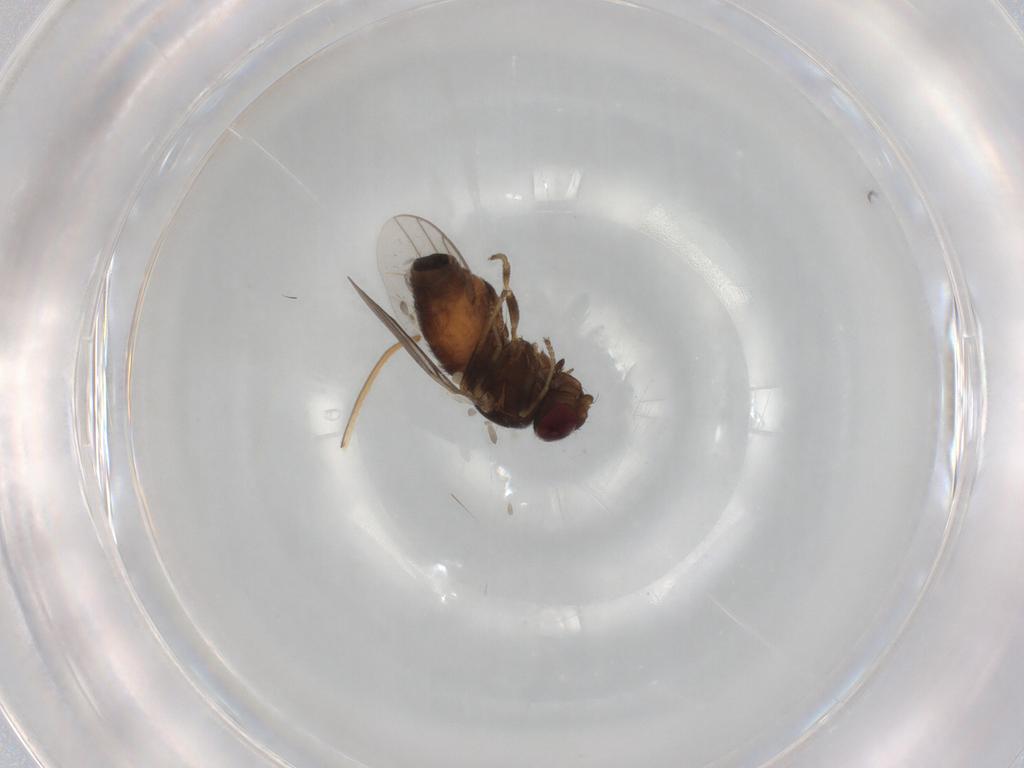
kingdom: Animalia
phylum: Arthropoda
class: Insecta
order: Diptera
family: Chloropidae
